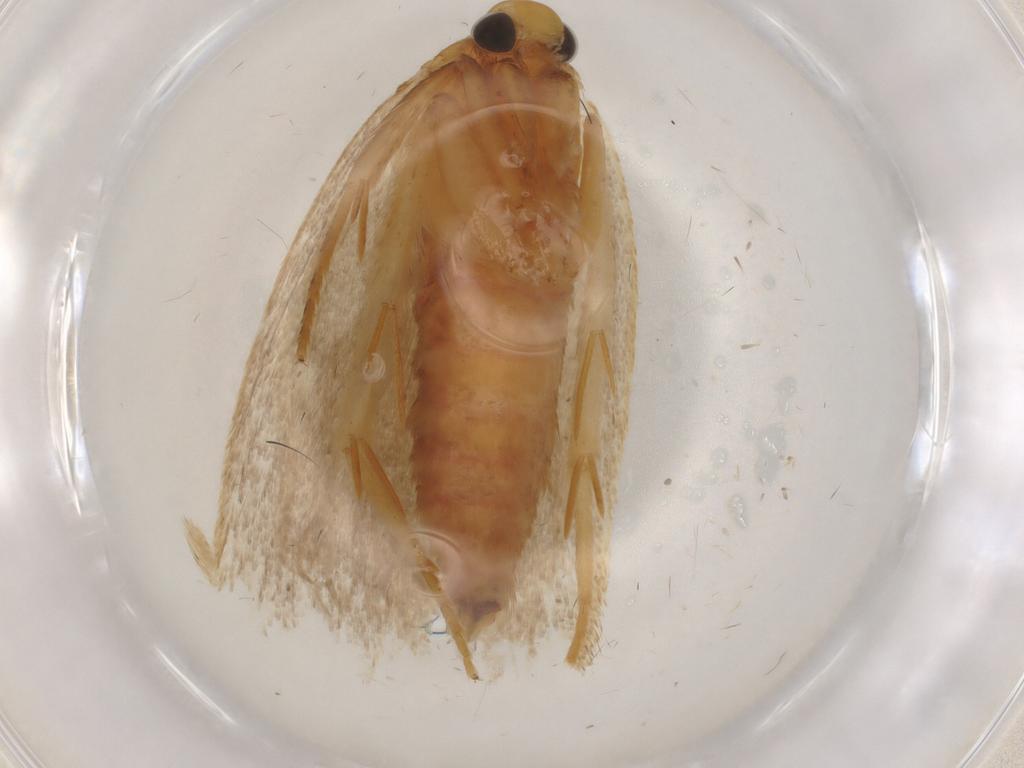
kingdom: Animalia
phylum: Arthropoda
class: Insecta
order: Lepidoptera
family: Autostichidae
